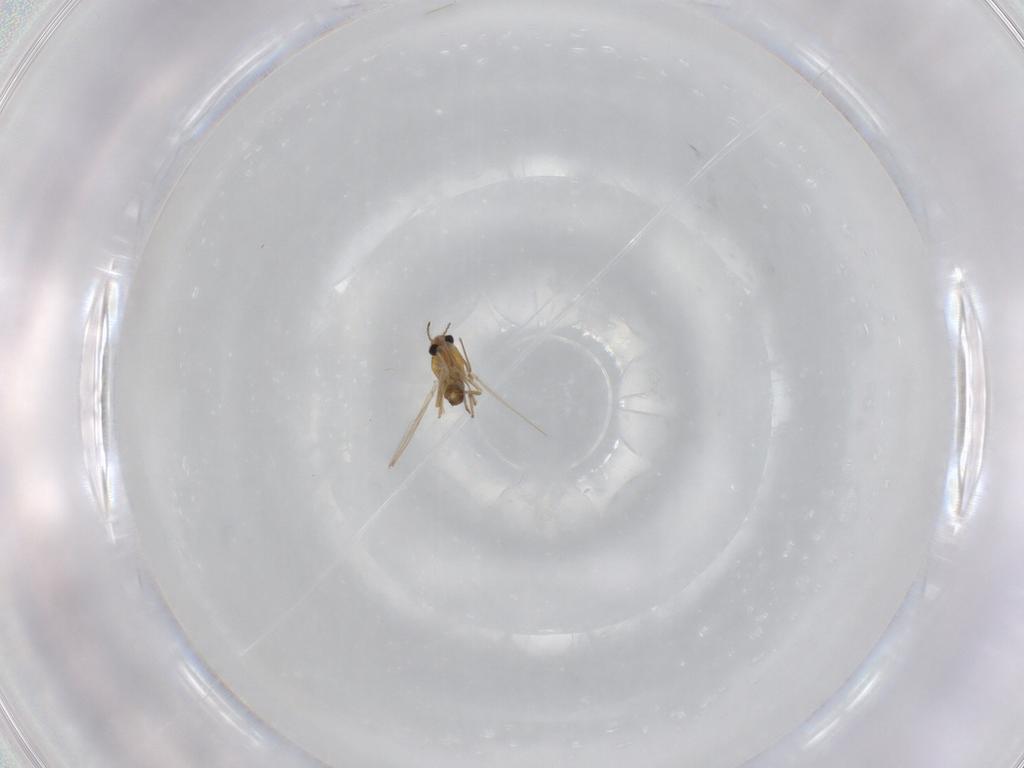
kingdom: Animalia
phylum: Arthropoda
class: Insecta
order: Diptera
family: Chironomidae
